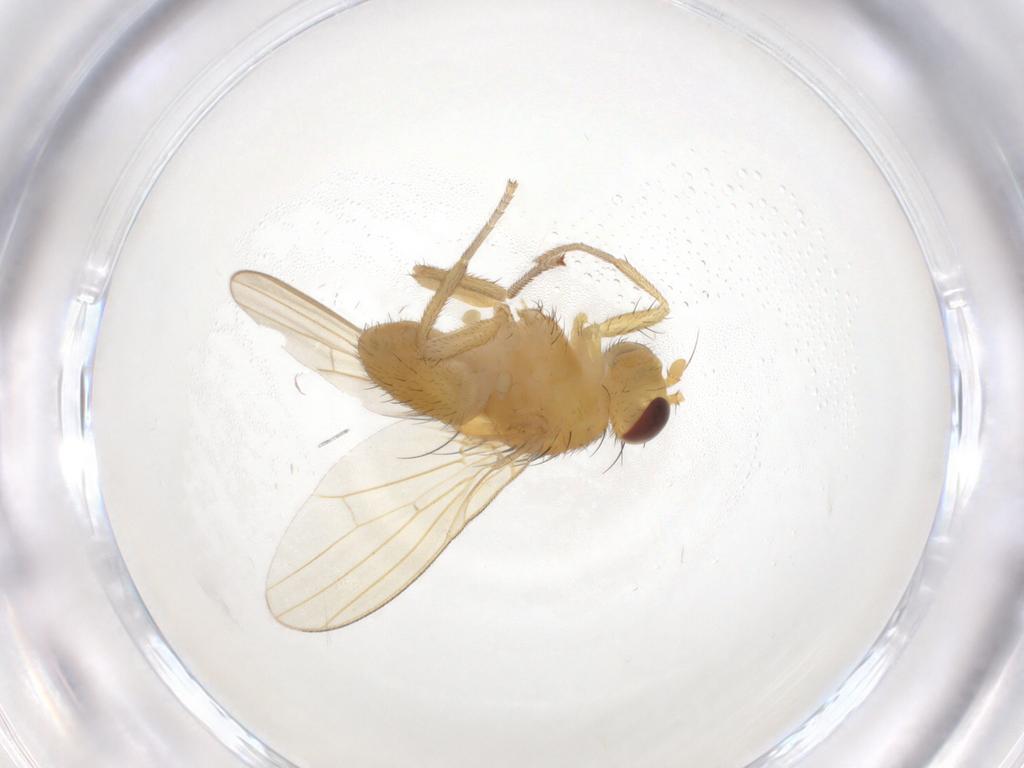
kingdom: Animalia
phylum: Arthropoda
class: Insecta
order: Diptera
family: Lauxaniidae
